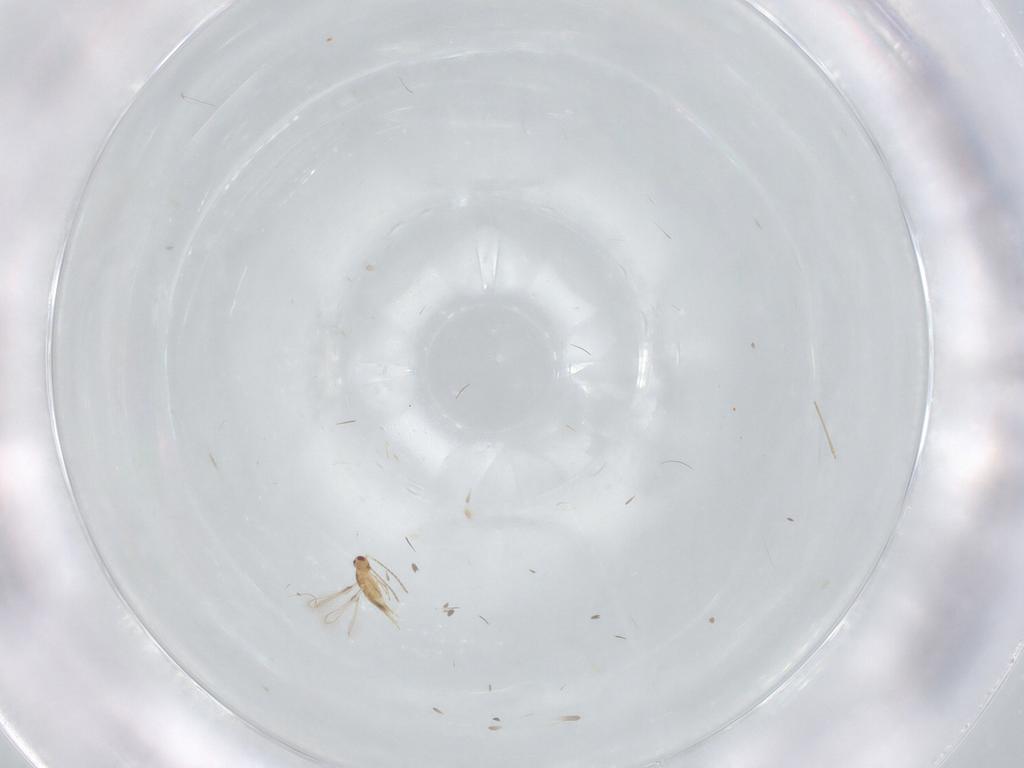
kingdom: Animalia
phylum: Arthropoda
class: Insecta
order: Hymenoptera
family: Mymaridae
